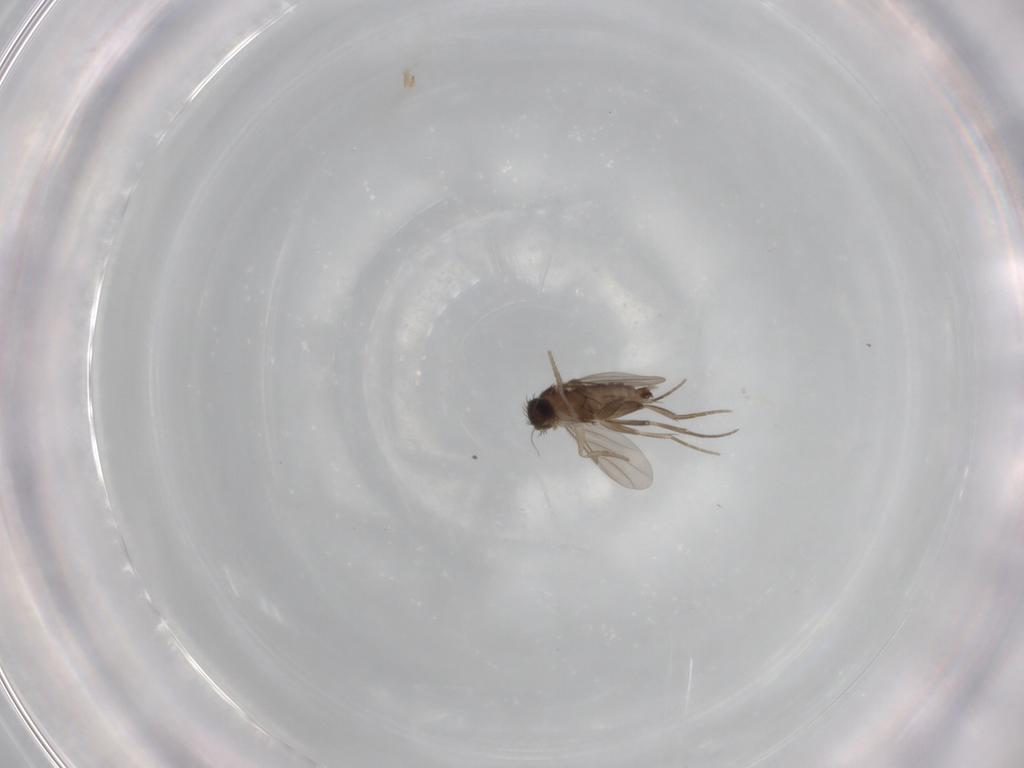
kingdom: Animalia
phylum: Arthropoda
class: Insecta
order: Diptera
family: Phoridae
